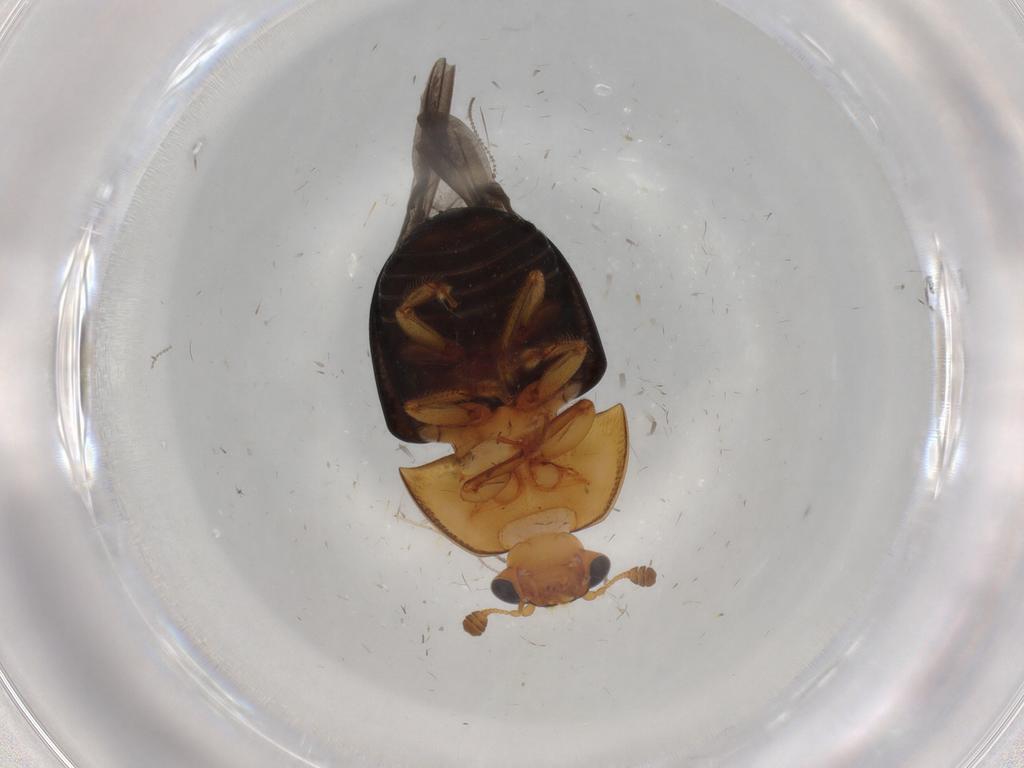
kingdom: Animalia
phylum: Arthropoda
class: Insecta
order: Coleoptera
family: Nitidulidae
